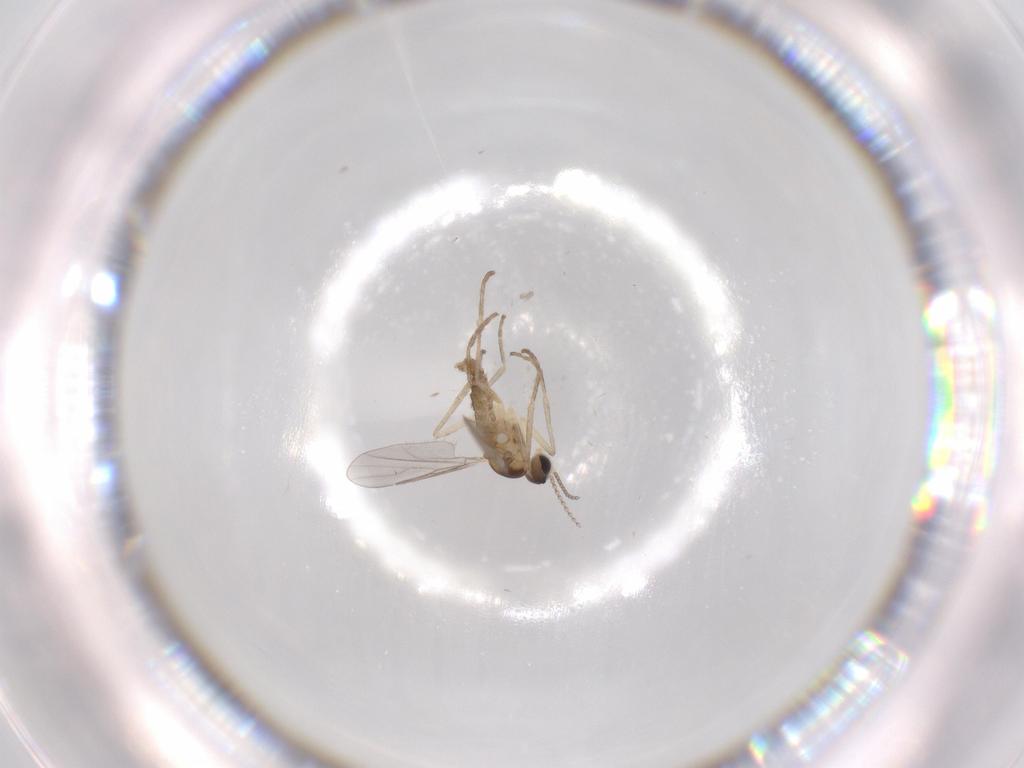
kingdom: Animalia
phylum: Arthropoda
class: Insecta
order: Diptera
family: Cecidomyiidae
